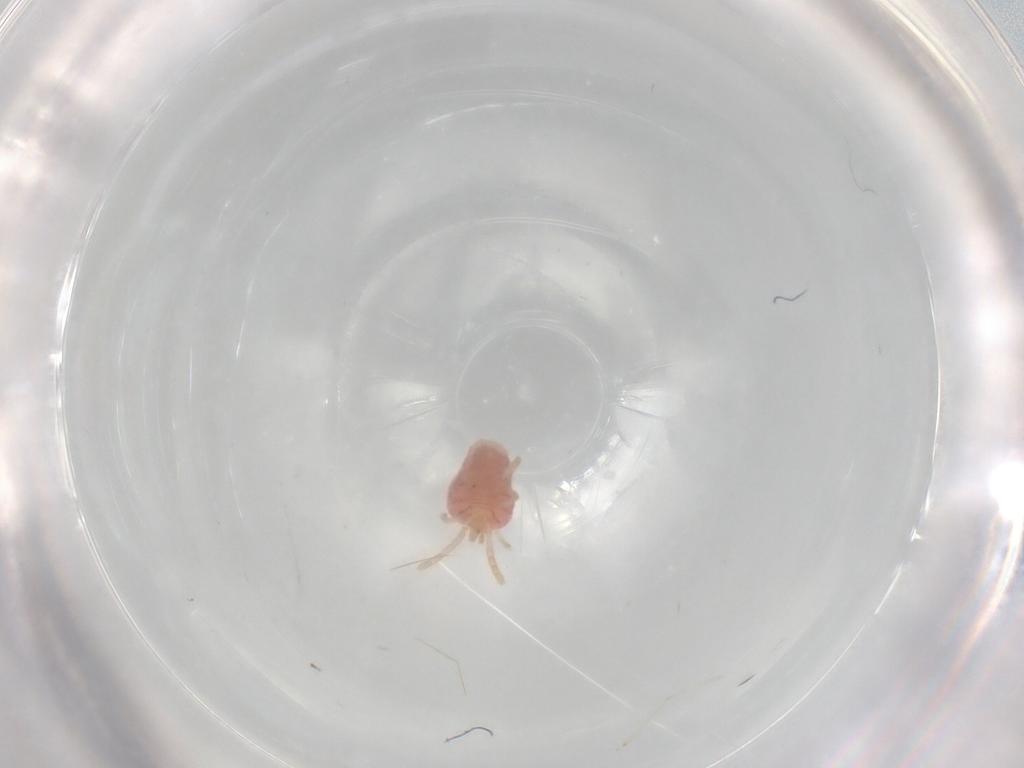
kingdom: Animalia
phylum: Arthropoda
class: Arachnida
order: Araneae
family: Clubionidae
